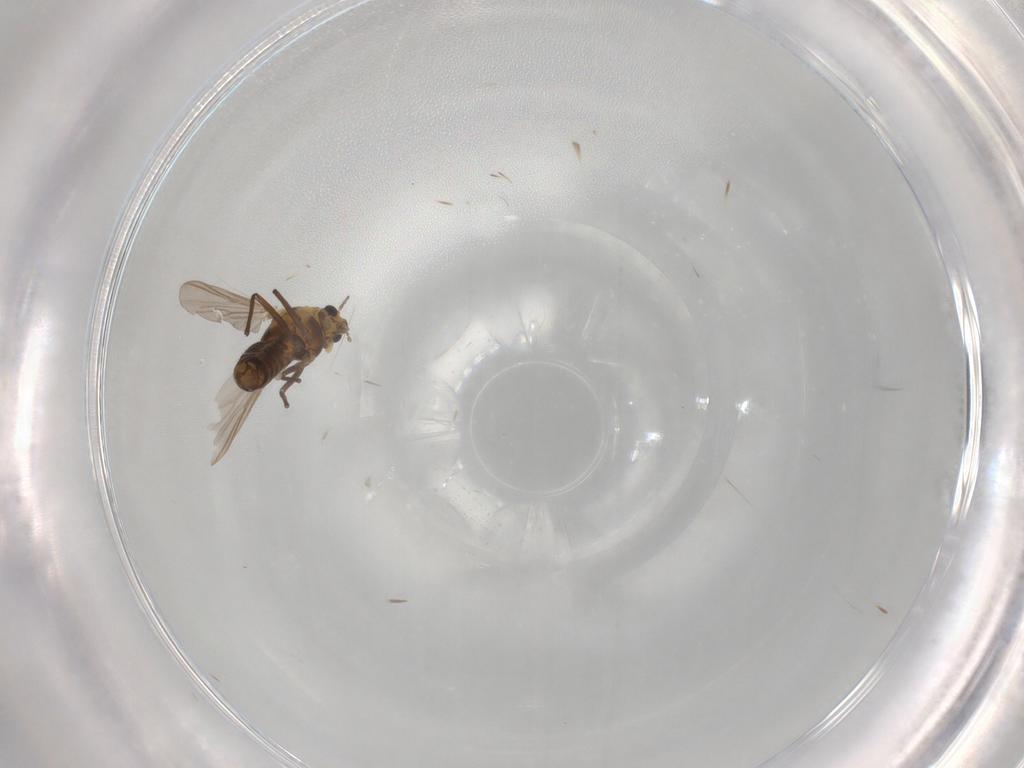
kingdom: Animalia
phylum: Arthropoda
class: Insecta
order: Diptera
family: Chironomidae
